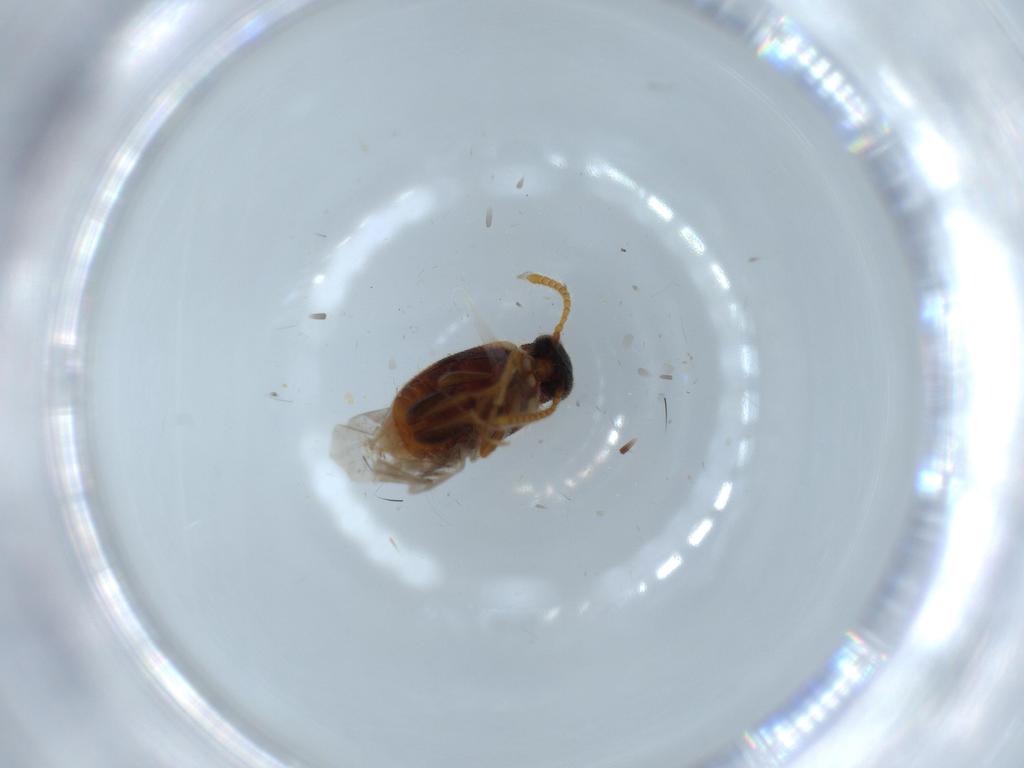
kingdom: Animalia
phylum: Arthropoda
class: Insecta
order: Coleoptera
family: Aderidae
